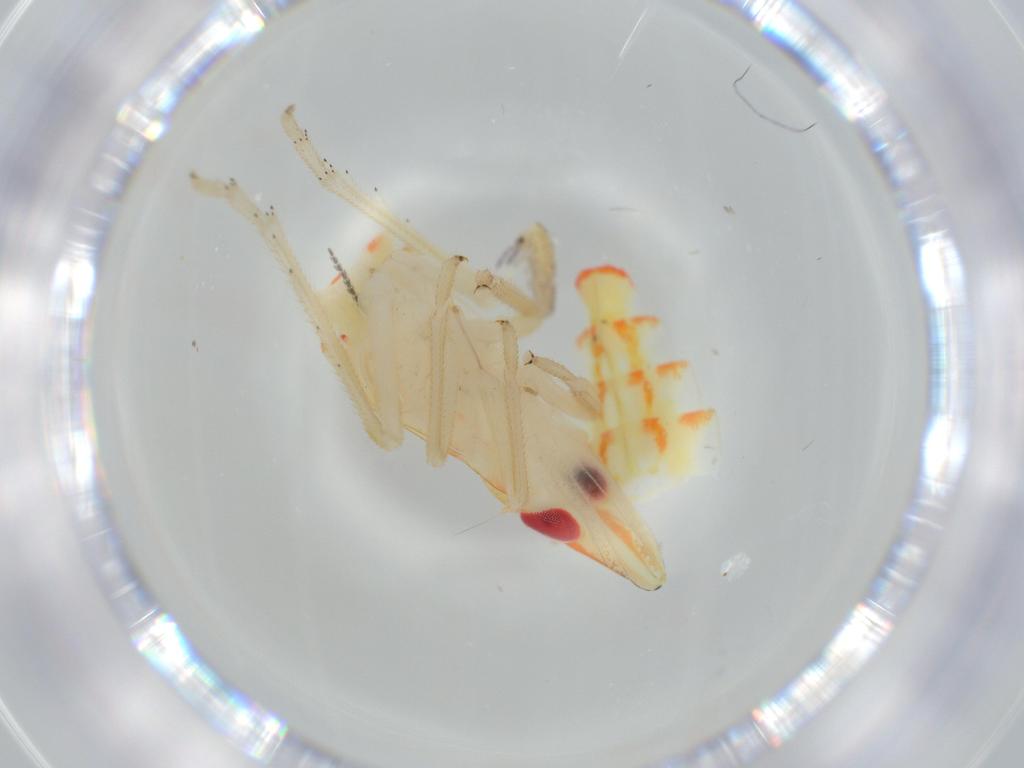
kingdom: Animalia
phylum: Arthropoda
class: Insecta
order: Hemiptera
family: Tropiduchidae
